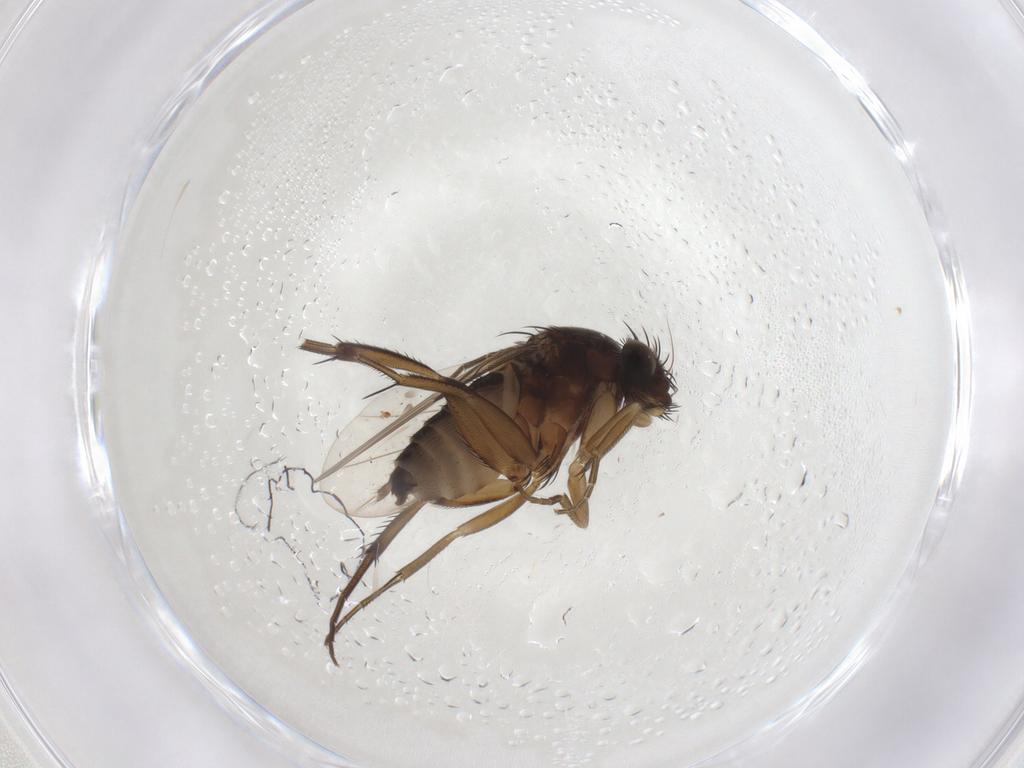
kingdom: Animalia
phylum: Arthropoda
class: Insecta
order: Diptera
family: Phoridae
